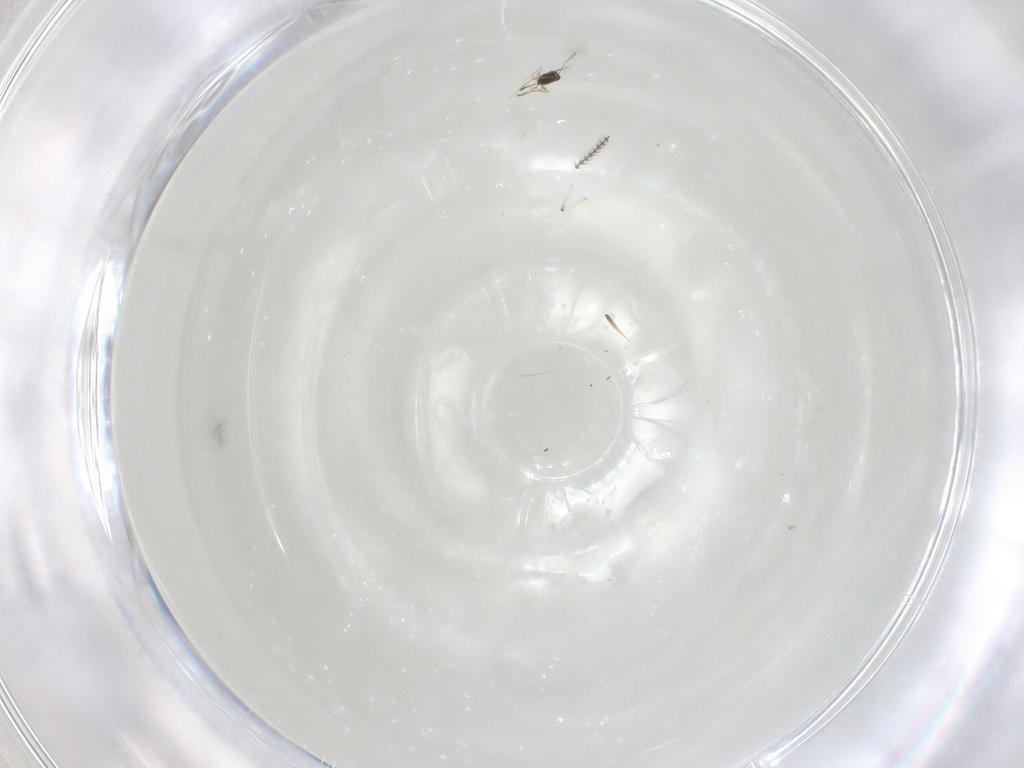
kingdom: Animalia
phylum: Arthropoda
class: Insecta
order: Diptera
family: Cecidomyiidae
